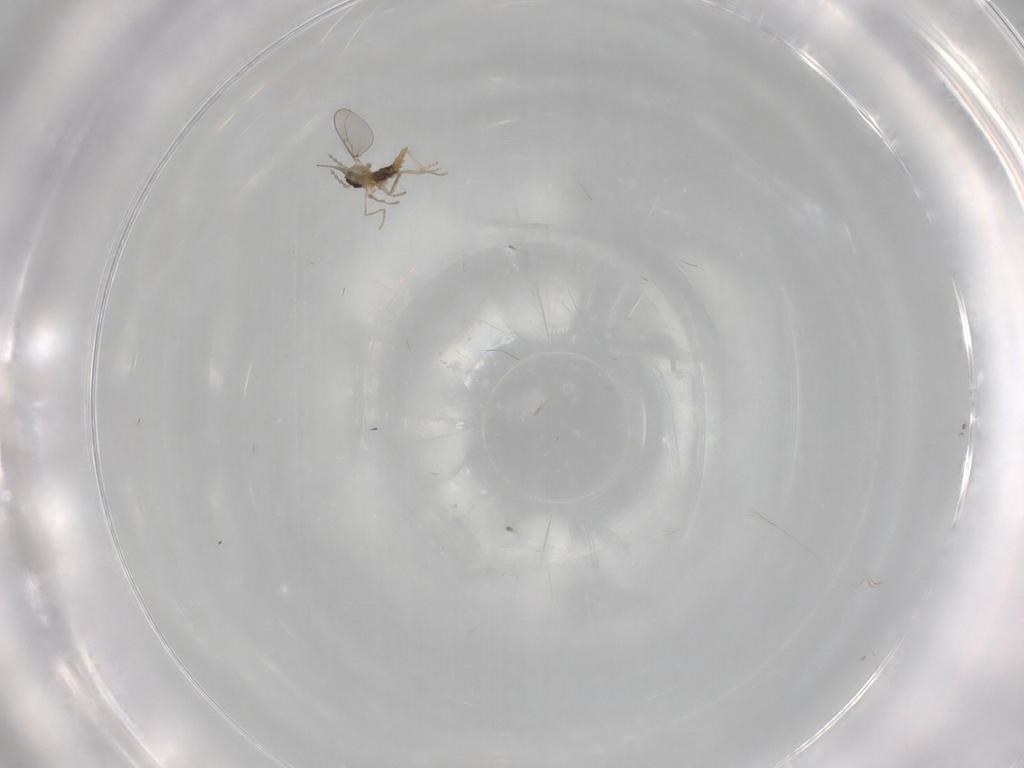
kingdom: Animalia
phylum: Arthropoda
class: Insecta
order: Diptera
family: Cecidomyiidae
